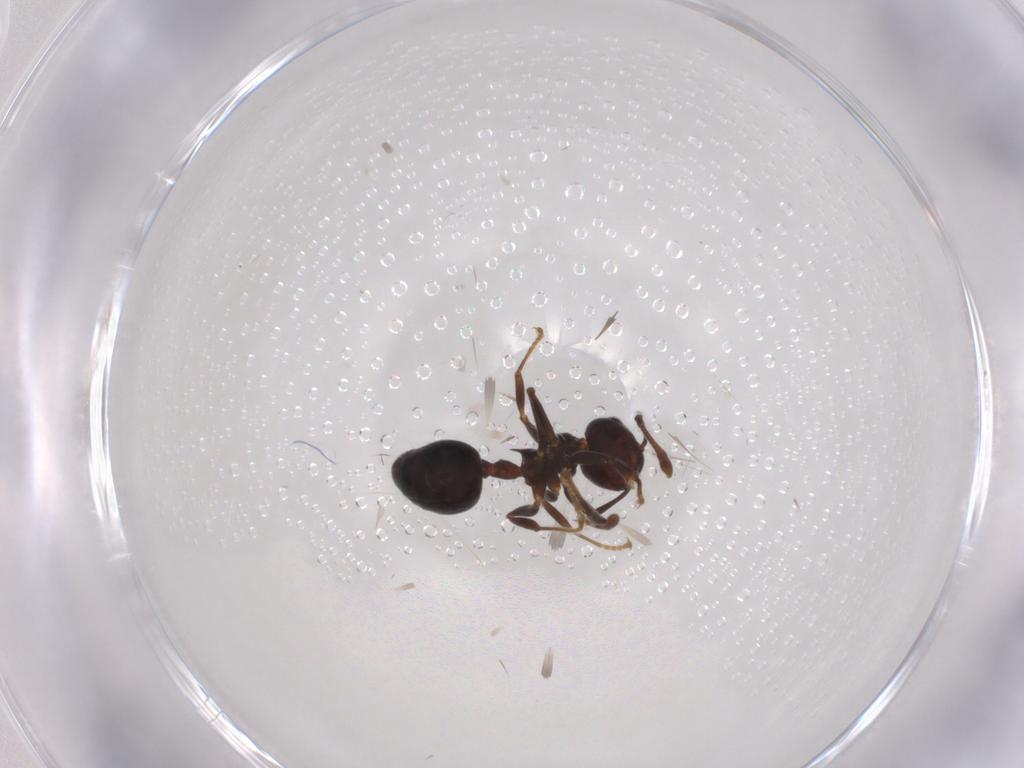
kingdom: Animalia
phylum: Arthropoda
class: Insecta
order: Hymenoptera
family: Formicidae
